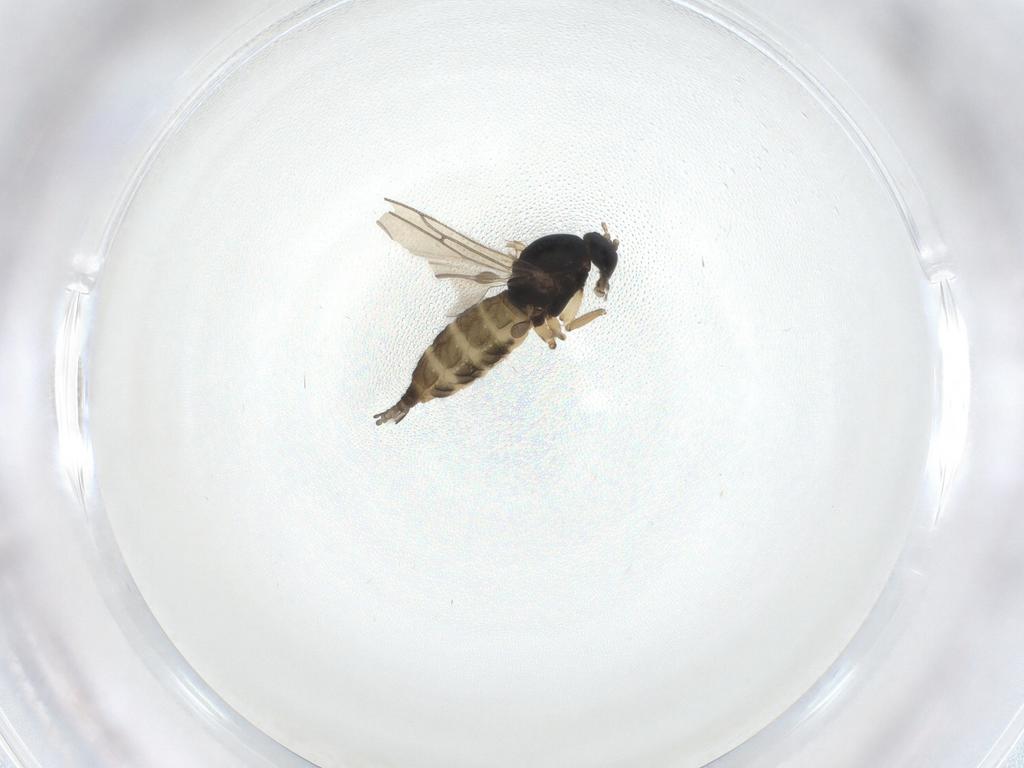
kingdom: Animalia
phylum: Arthropoda
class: Insecta
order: Diptera
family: Sciaridae
